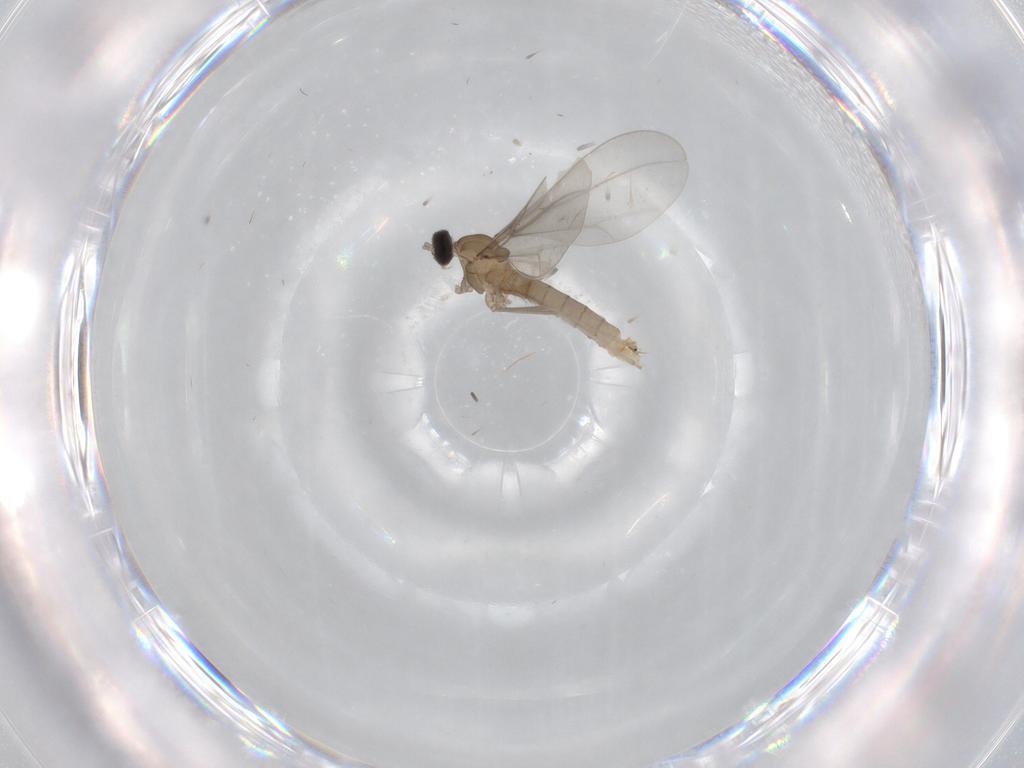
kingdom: Animalia
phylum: Arthropoda
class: Insecta
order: Diptera
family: Cecidomyiidae
